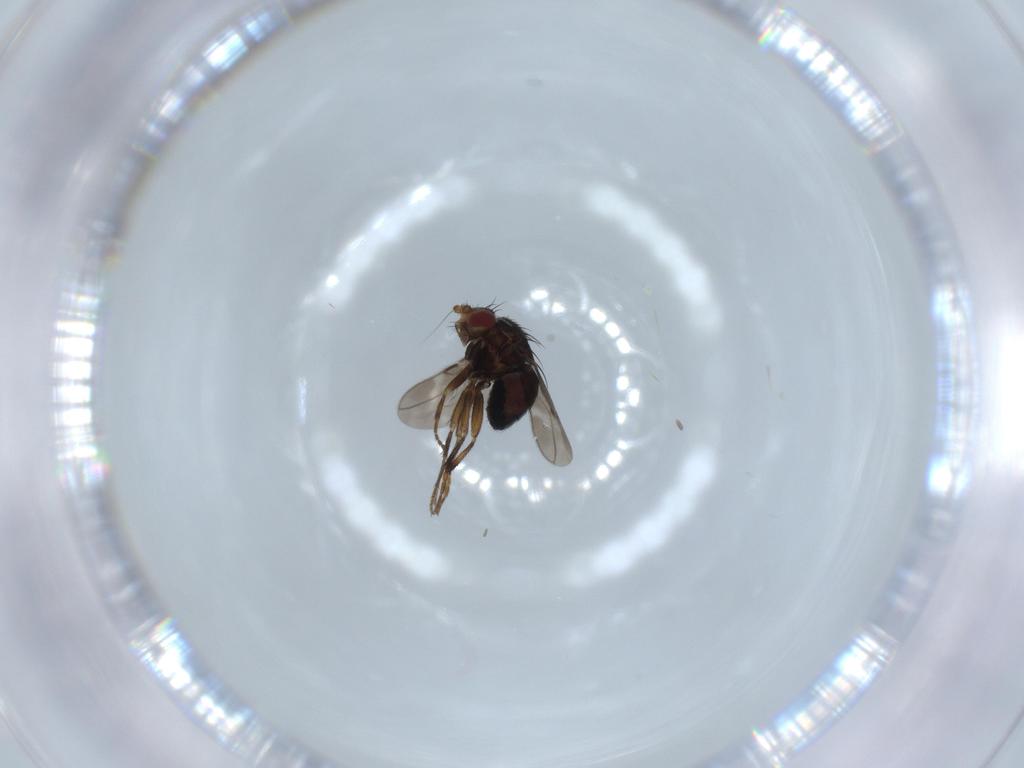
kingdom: Animalia
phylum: Arthropoda
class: Insecta
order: Diptera
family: Sphaeroceridae
